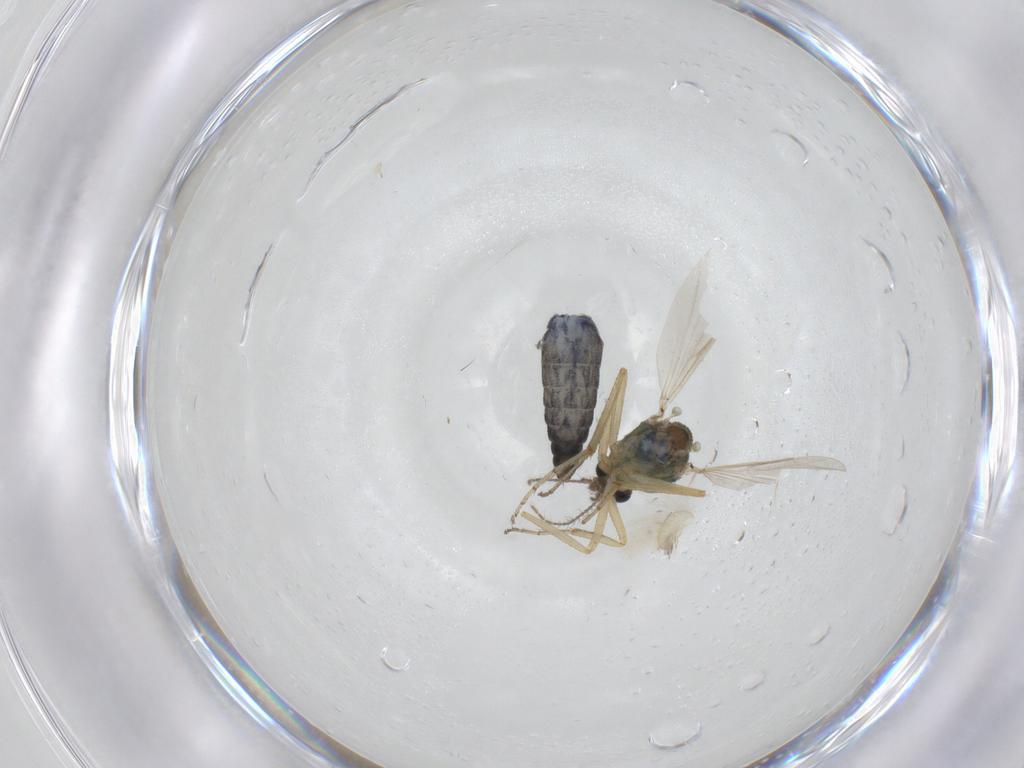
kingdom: Animalia
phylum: Arthropoda
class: Insecta
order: Diptera
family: Ceratopogonidae
